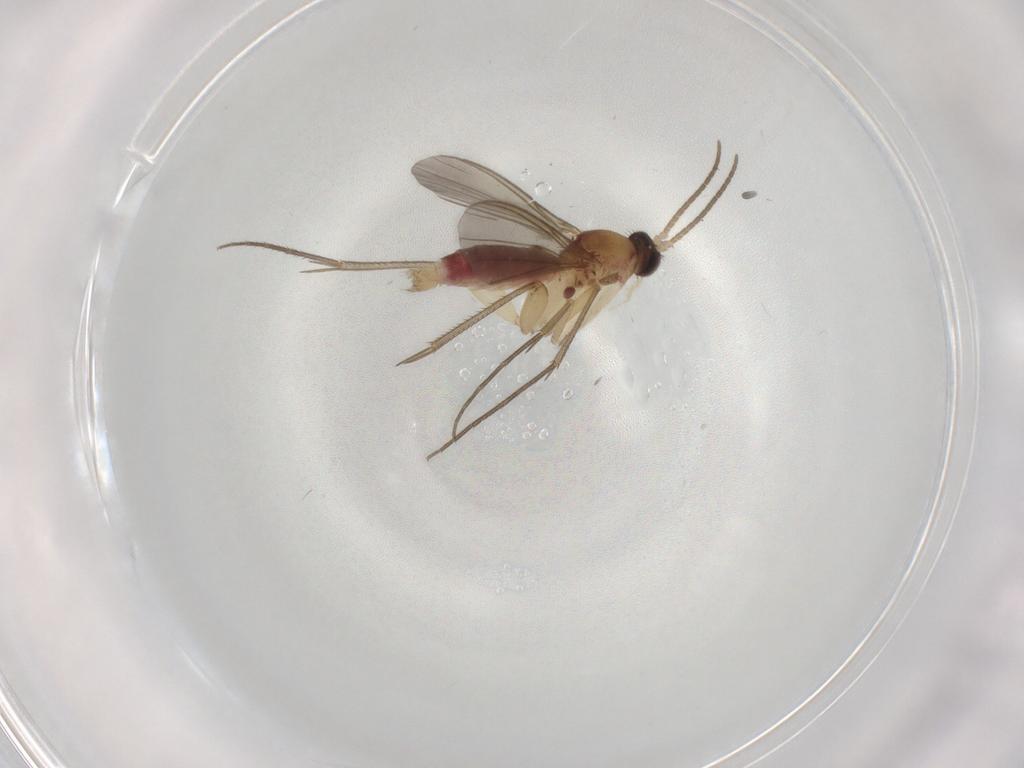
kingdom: Animalia
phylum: Arthropoda
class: Insecta
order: Diptera
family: Mycetophilidae
